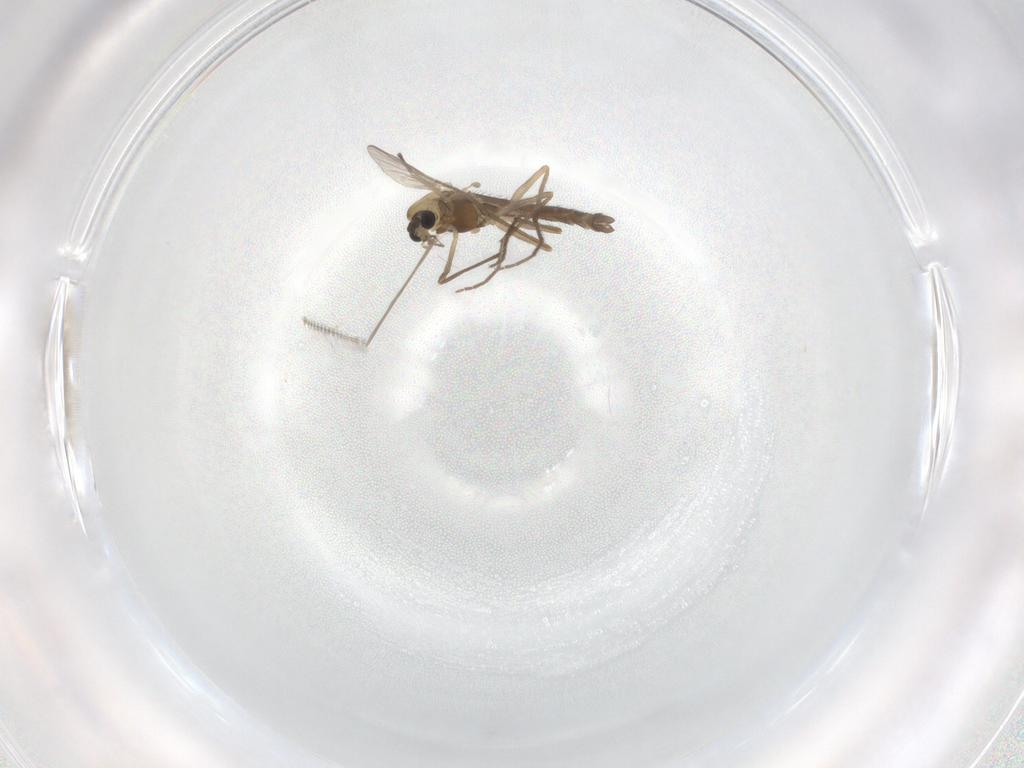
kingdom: Animalia
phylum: Arthropoda
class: Insecta
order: Diptera
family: Chironomidae
